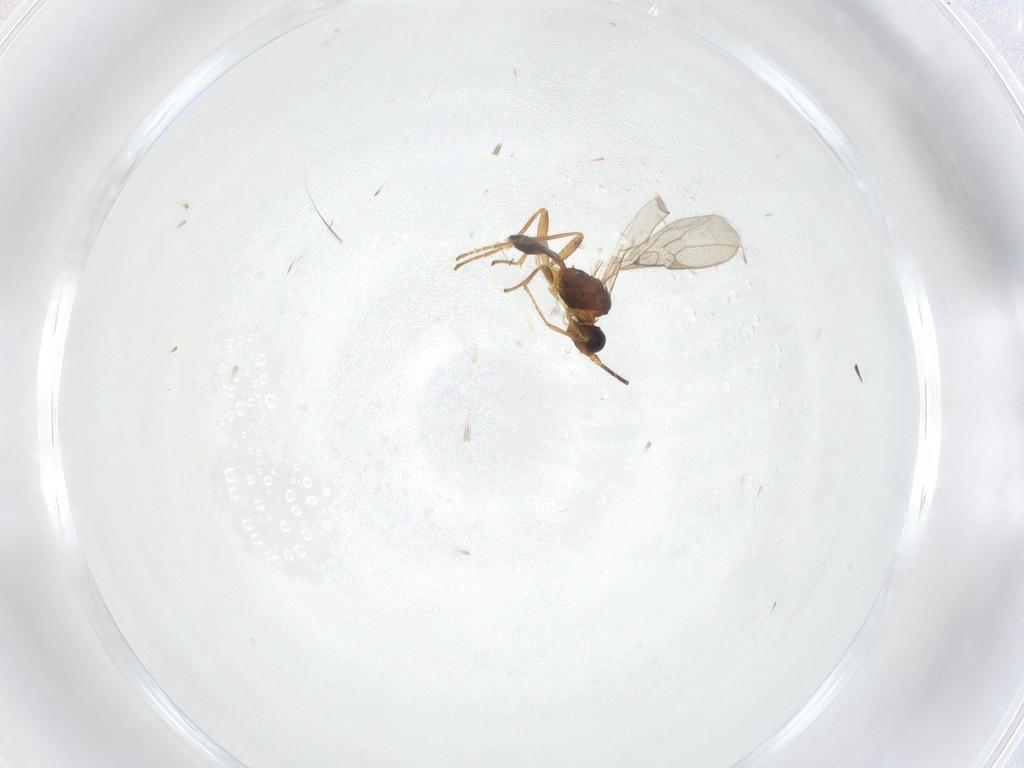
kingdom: Animalia
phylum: Arthropoda
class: Insecta
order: Hymenoptera
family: Braconidae
